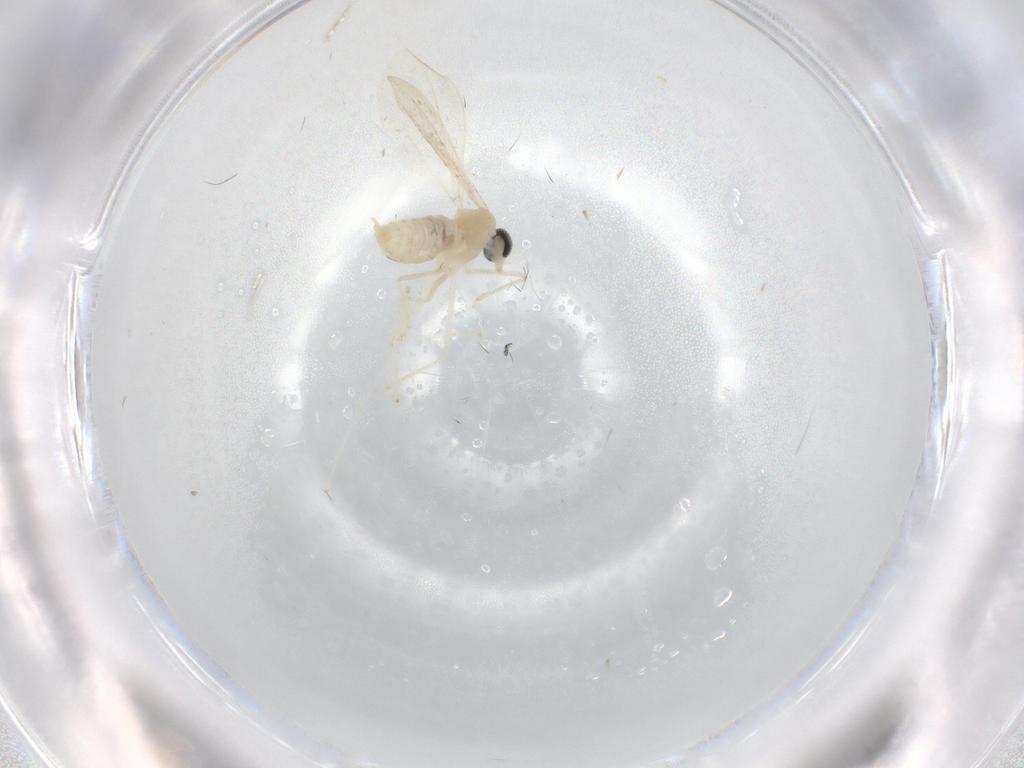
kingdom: Animalia
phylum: Arthropoda
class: Insecta
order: Diptera
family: Cecidomyiidae
